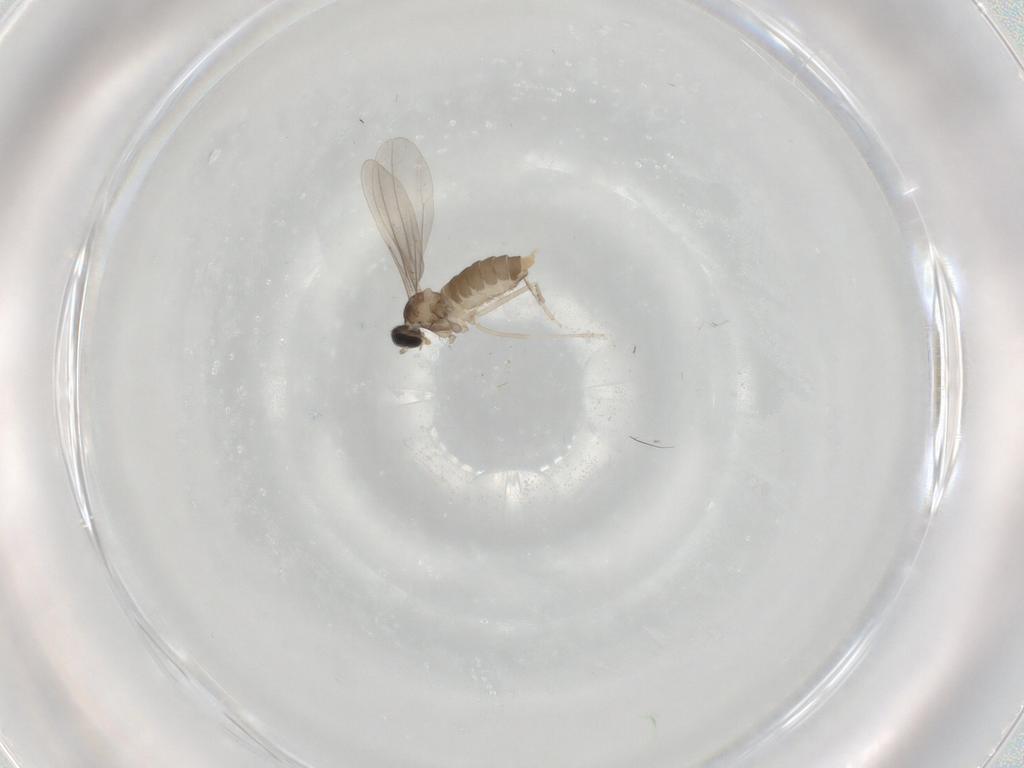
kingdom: Animalia
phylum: Arthropoda
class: Insecta
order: Diptera
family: Cecidomyiidae
